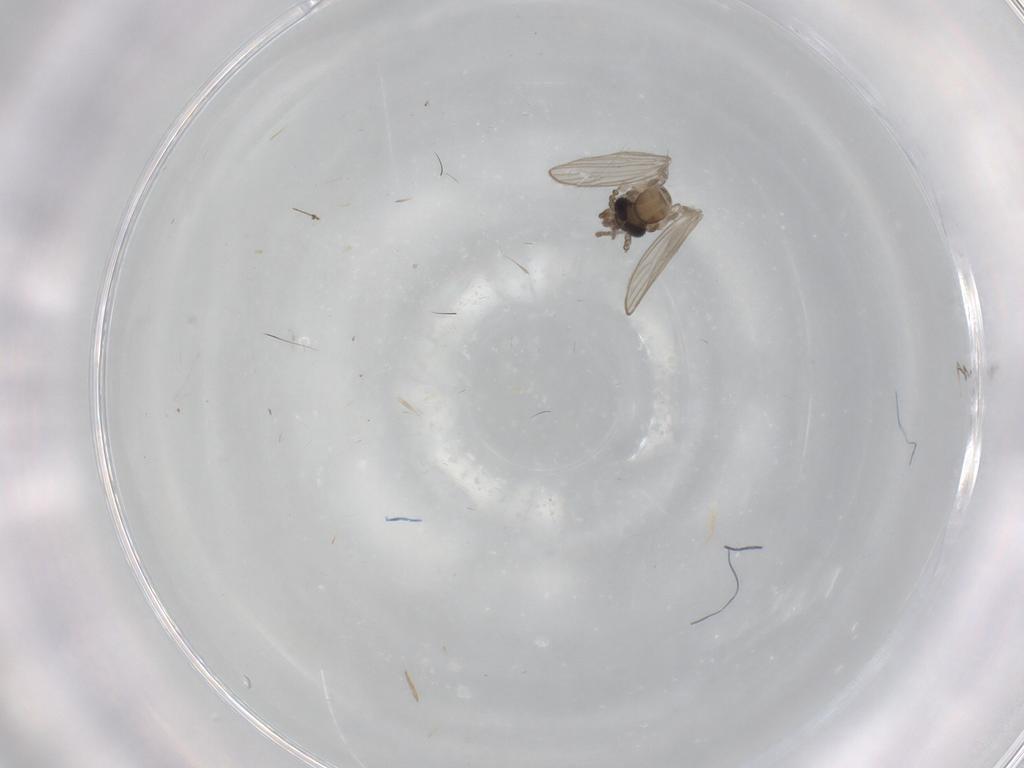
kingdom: Animalia
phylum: Arthropoda
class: Insecta
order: Diptera
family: Psychodidae
